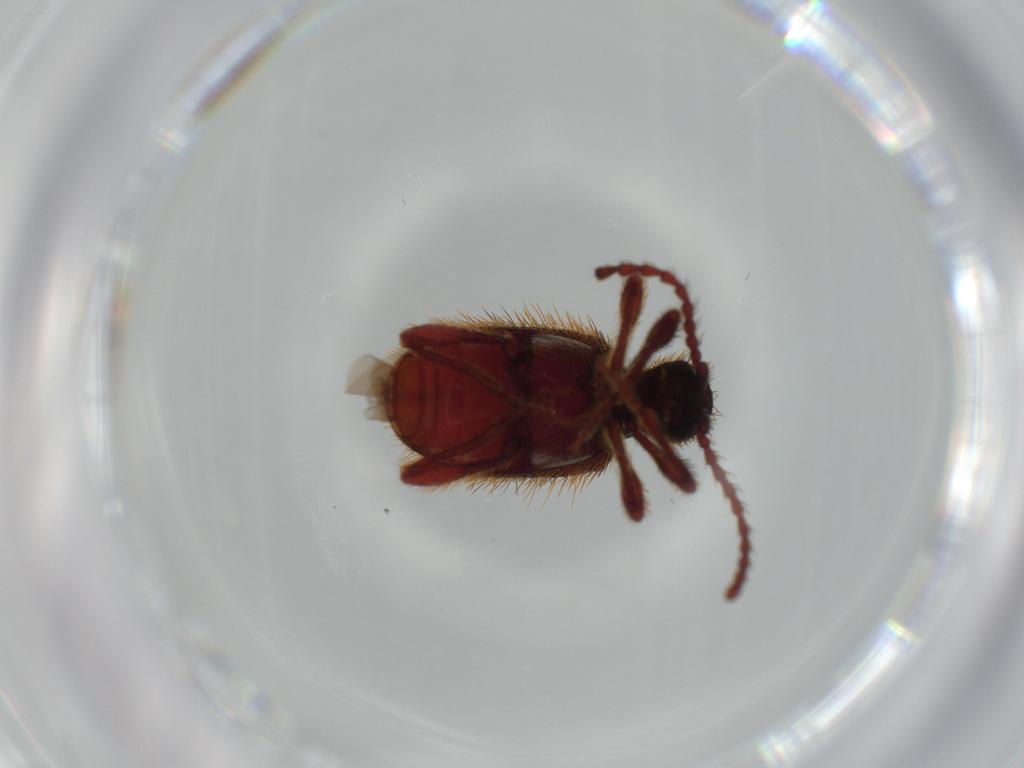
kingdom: Animalia
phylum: Arthropoda
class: Insecta
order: Coleoptera
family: Ptinidae
